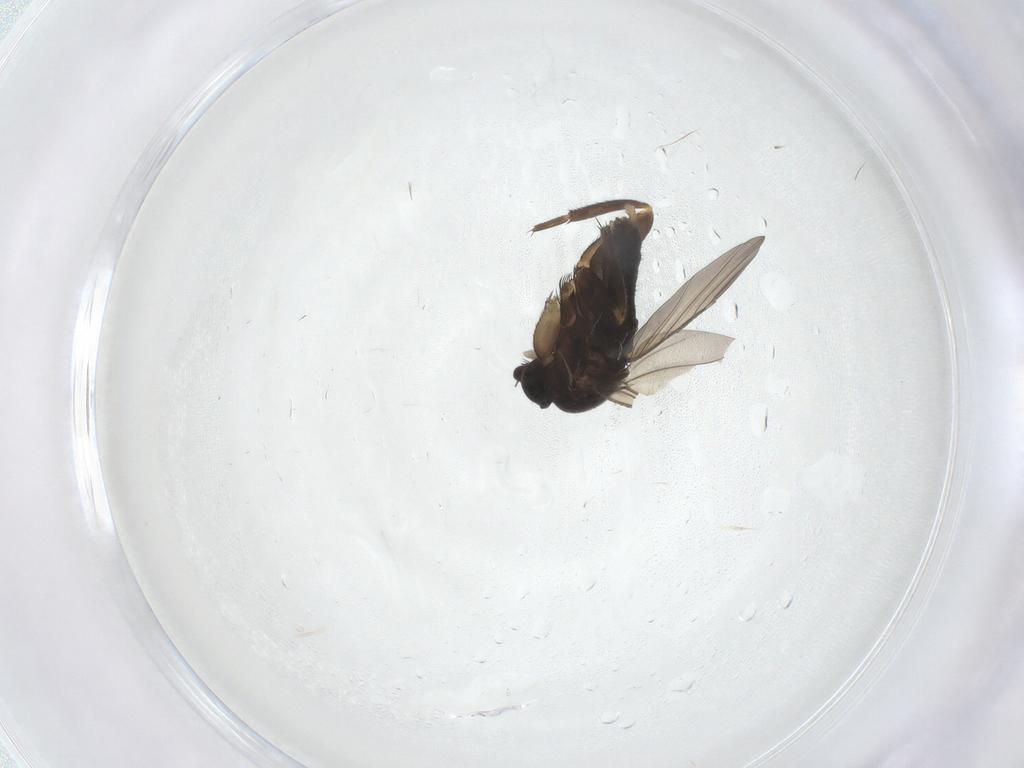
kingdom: Animalia
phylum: Arthropoda
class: Insecta
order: Diptera
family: Phoridae
